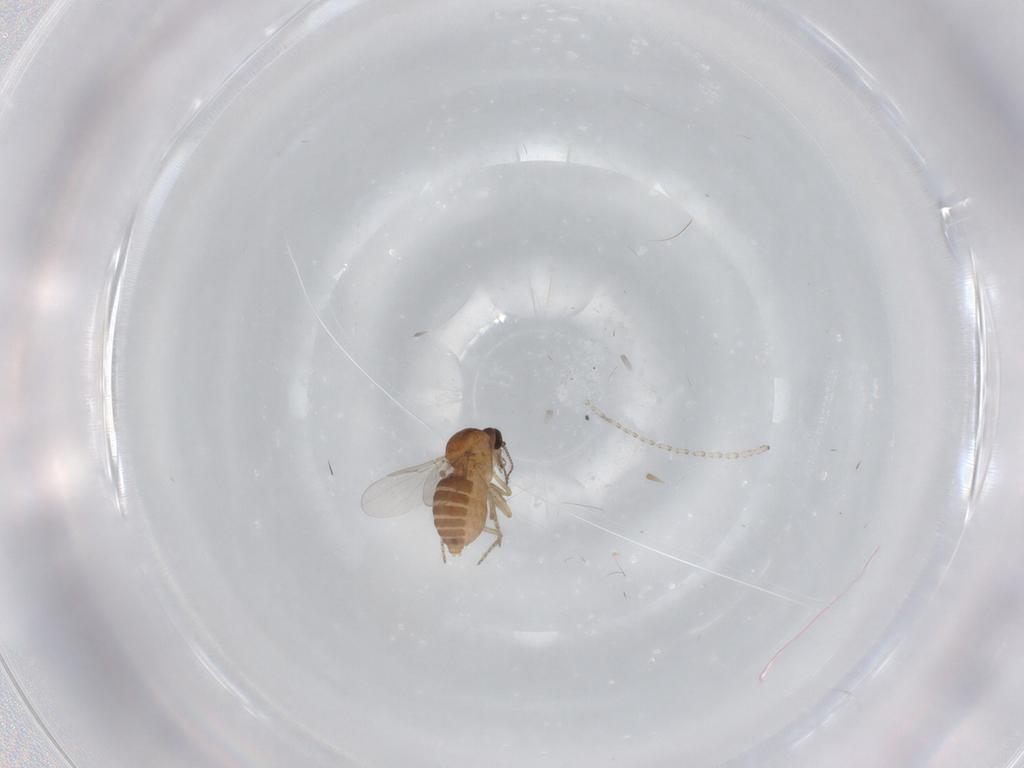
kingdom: Animalia
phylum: Arthropoda
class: Insecta
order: Diptera
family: Ceratopogonidae
